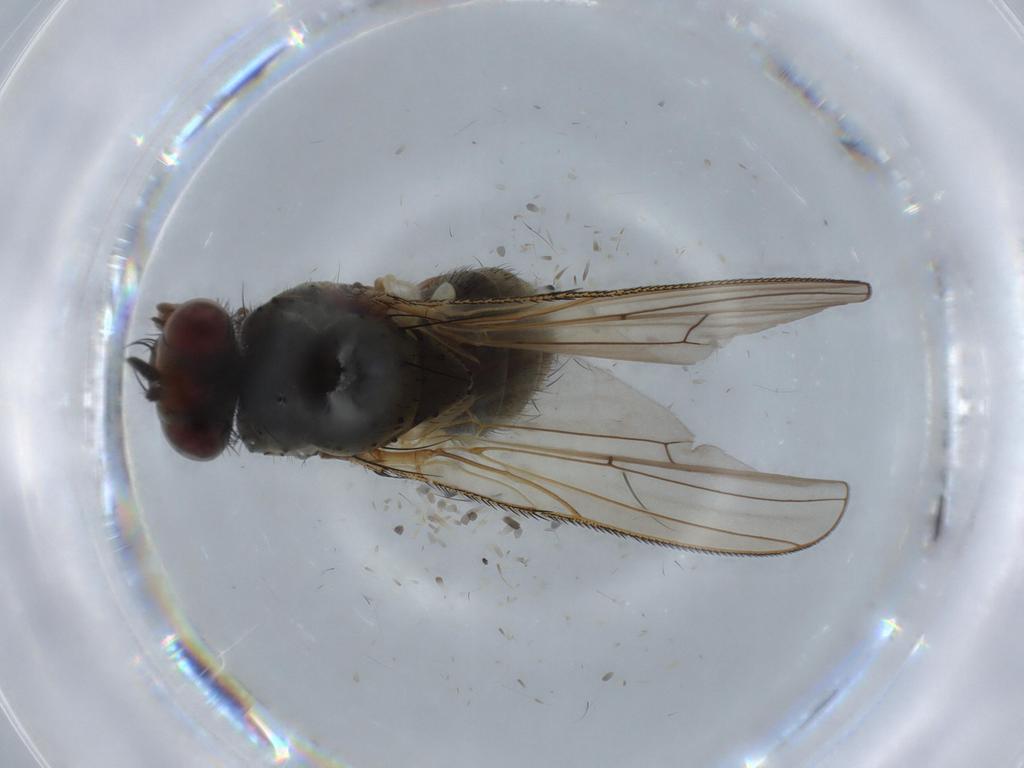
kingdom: Animalia
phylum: Arthropoda
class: Insecta
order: Diptera
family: Anthomyiidae
